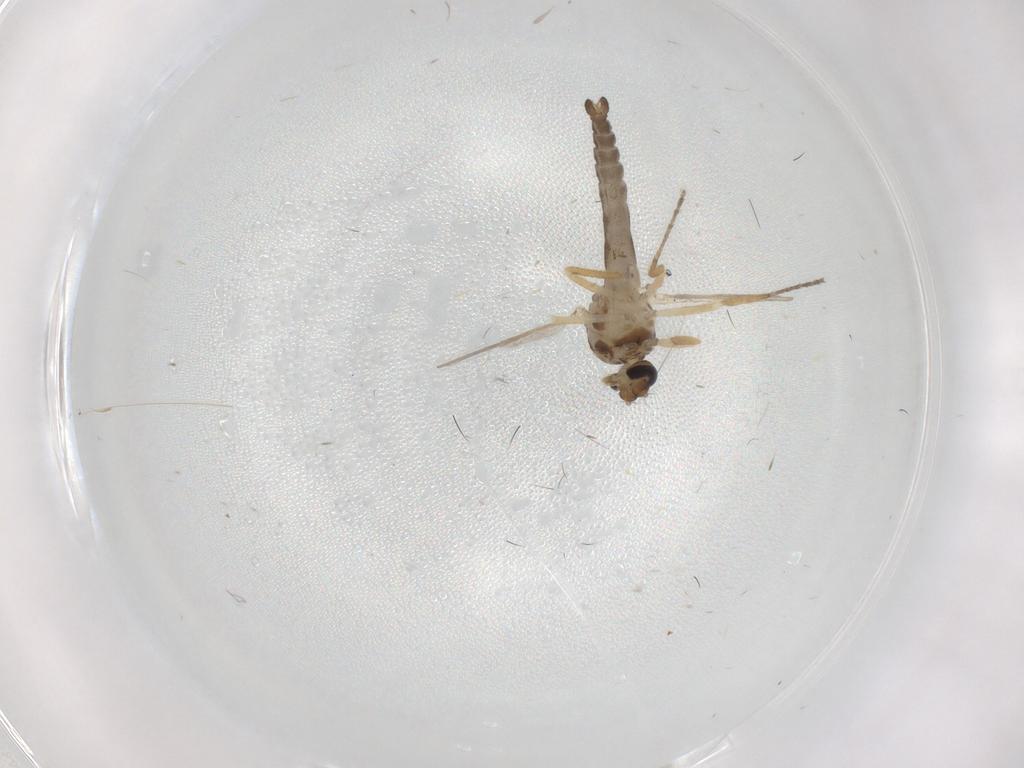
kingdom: Animalia
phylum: Arthropoda
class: Insecta
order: Diptera
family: Ceratopogonidae
